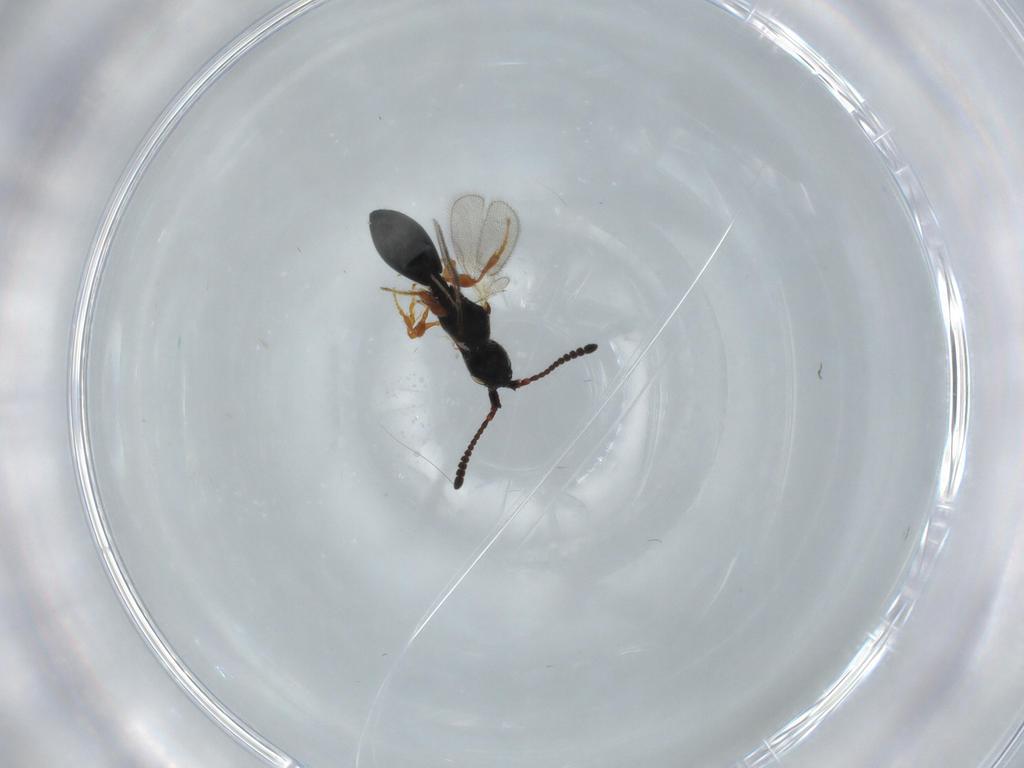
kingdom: Animalia
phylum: Arthropoda
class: Insecta
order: Hymenoptera
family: Diapriidae
